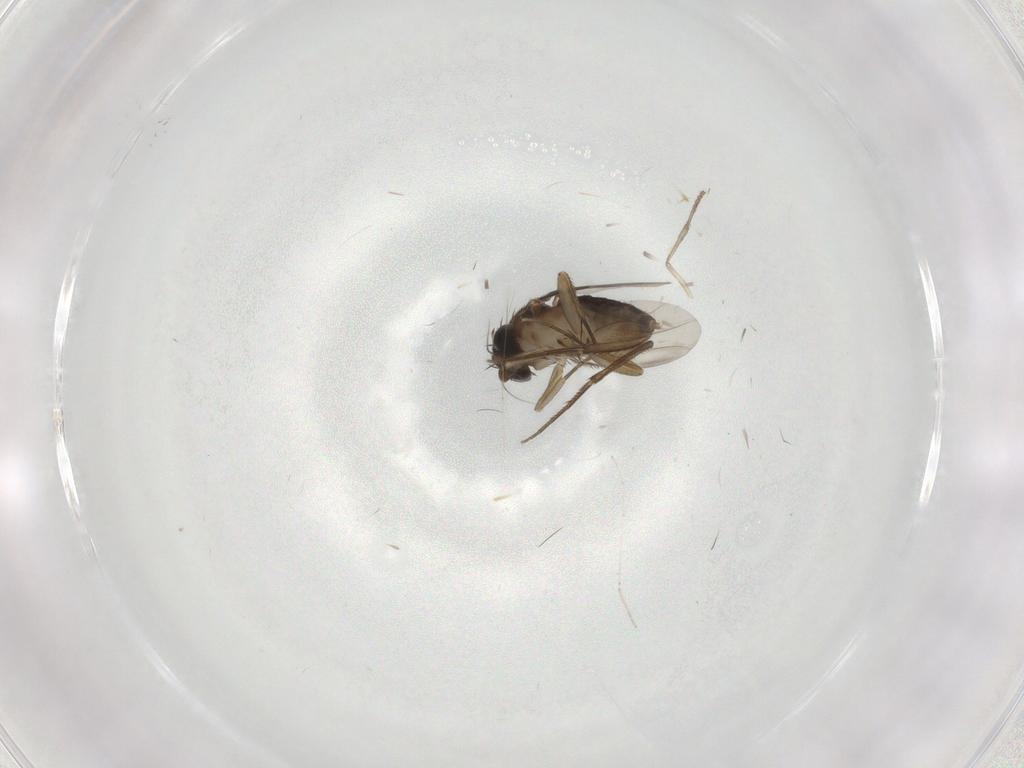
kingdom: Animalia
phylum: Arthropoda
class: Insecta
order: Diptera
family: Phoridae
